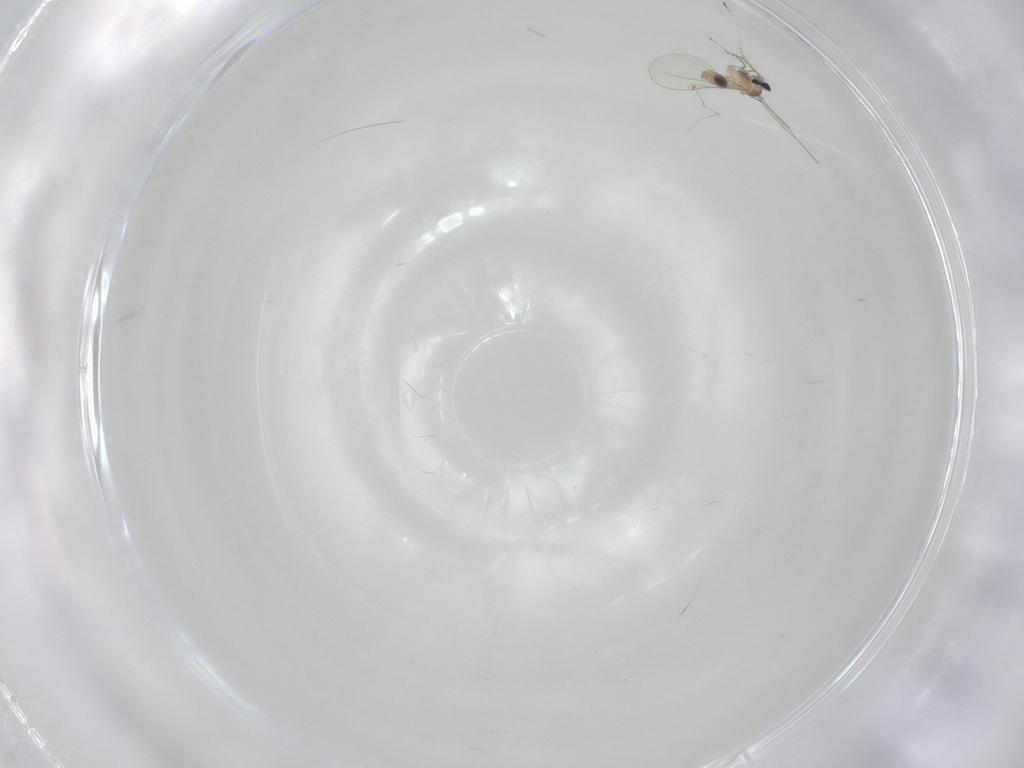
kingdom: Animalia
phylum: Arthropoda
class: Insecta
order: Diptera
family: Cecidomyiidae
